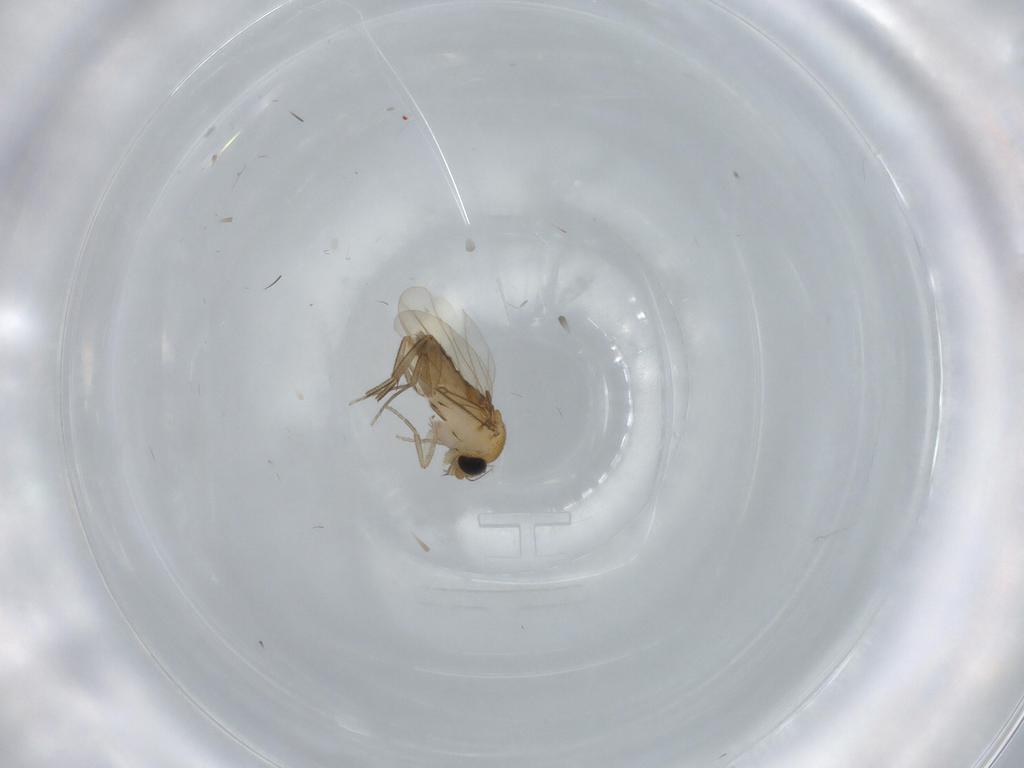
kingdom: Animalia
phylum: Arthropoda
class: Insecta
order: Diptera
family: Phoridae
